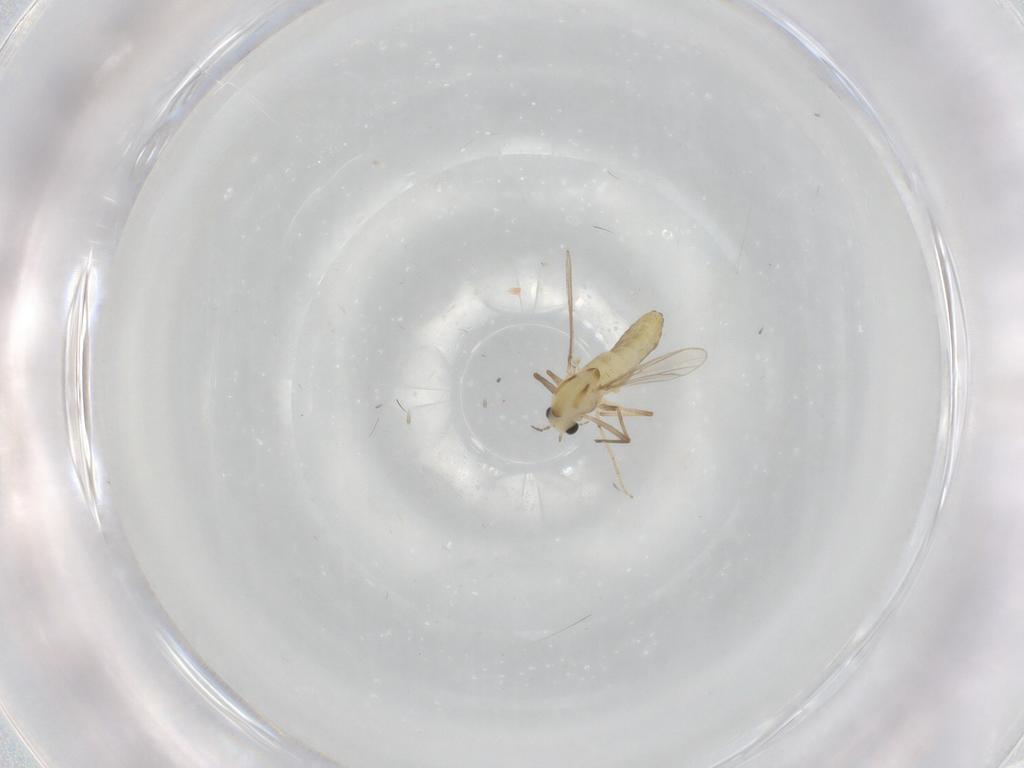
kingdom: Animalia
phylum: Arthropoda
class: Insecta
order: Diptera
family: Chironomidae
